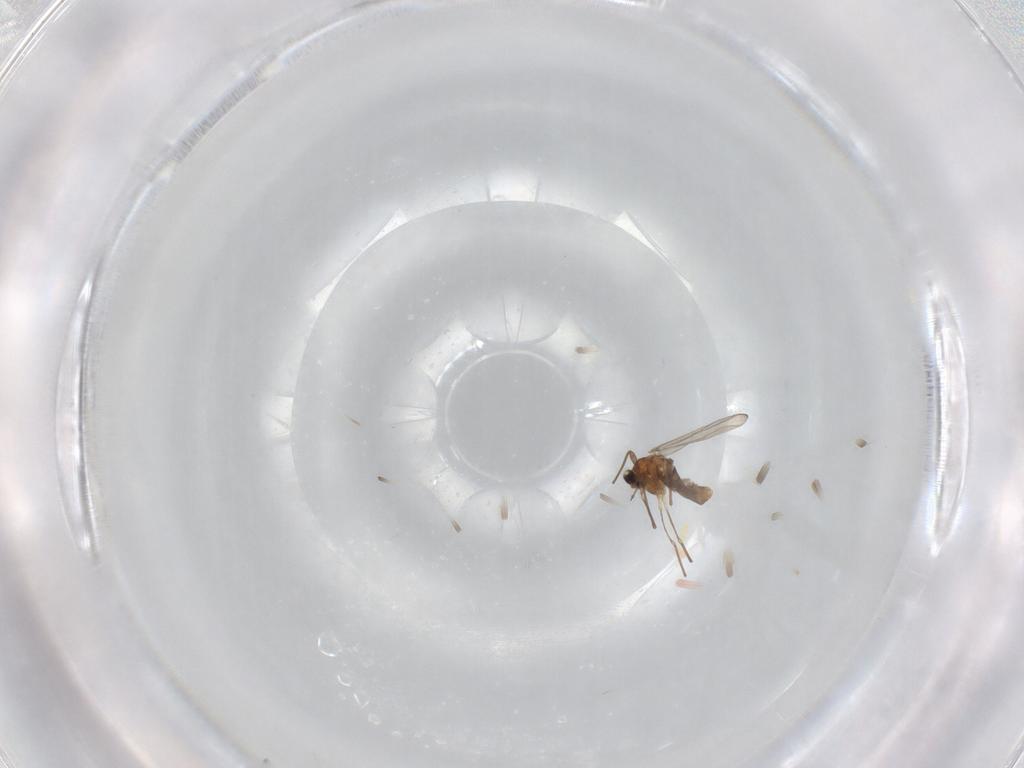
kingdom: Animalia
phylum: Arthropoda
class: Insecta
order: Diptera
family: Chironomidae
